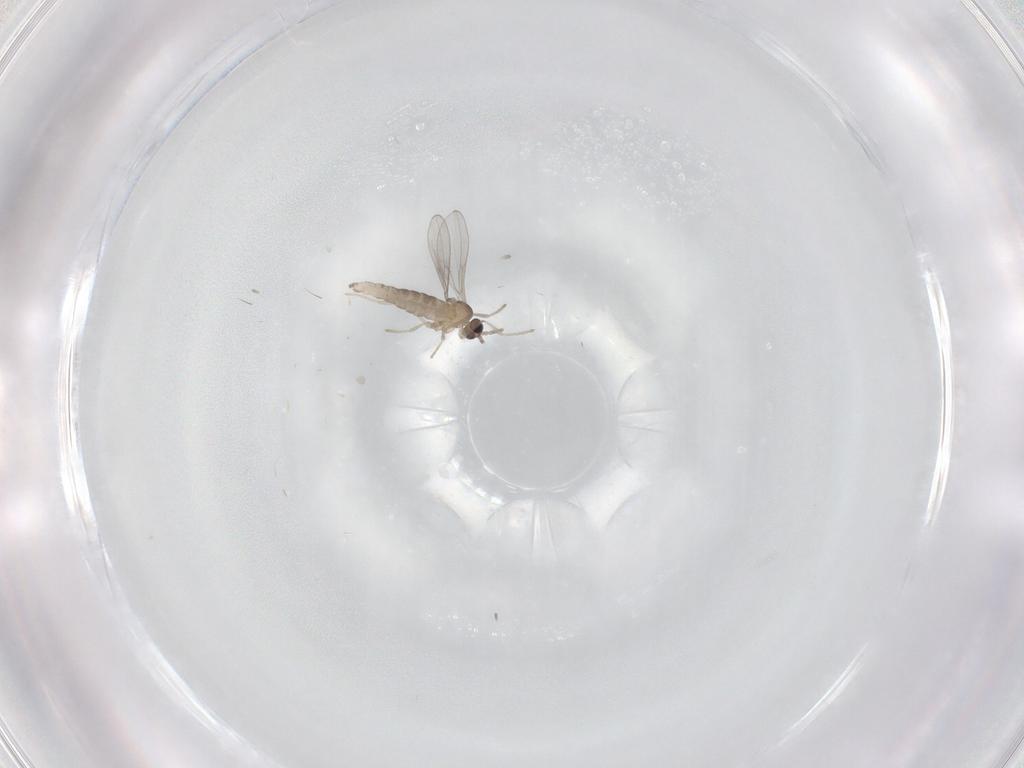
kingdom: Animalia
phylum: Arthropoda
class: Insecta
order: Diptera
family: Cecidomyiidae
